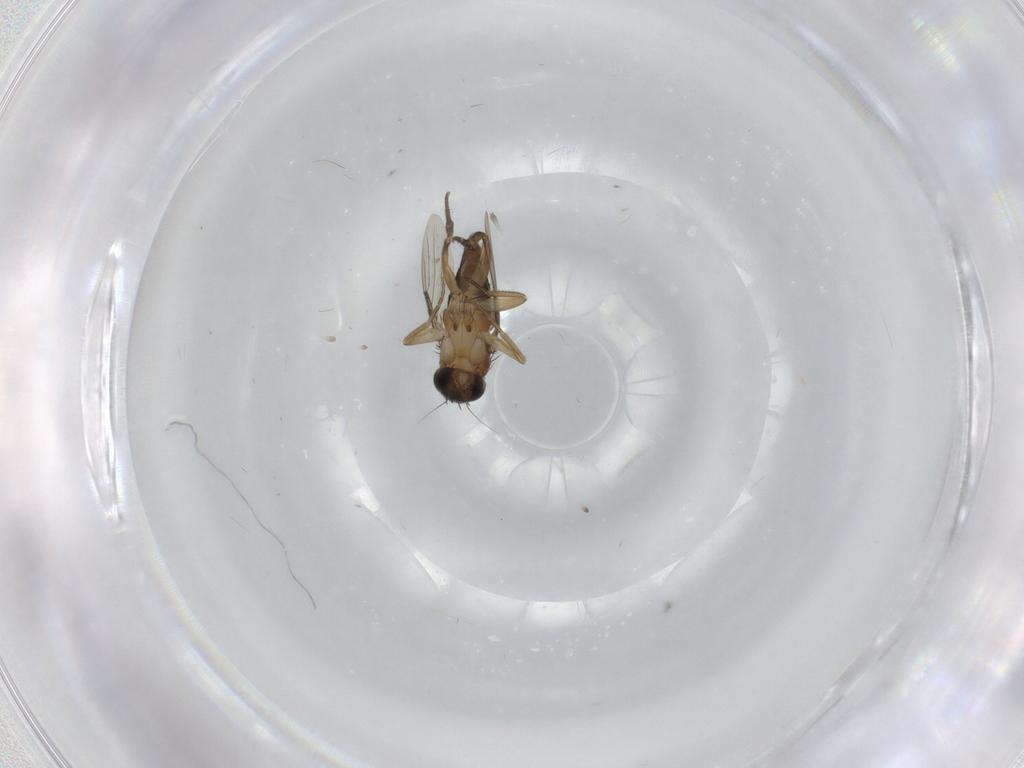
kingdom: Animalia
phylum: Arthropoda
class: Insecta
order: Diptera
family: Phoridae
